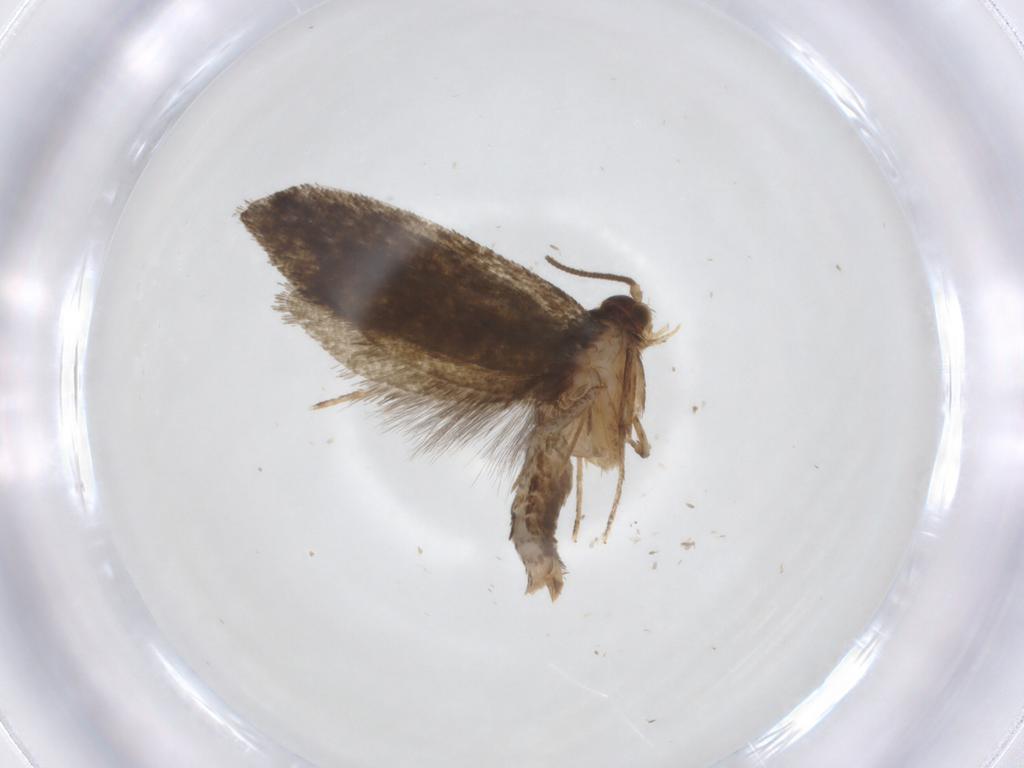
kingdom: Animalia
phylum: Arthropoda
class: Insecta
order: Lepidoptera
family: Tineidae
